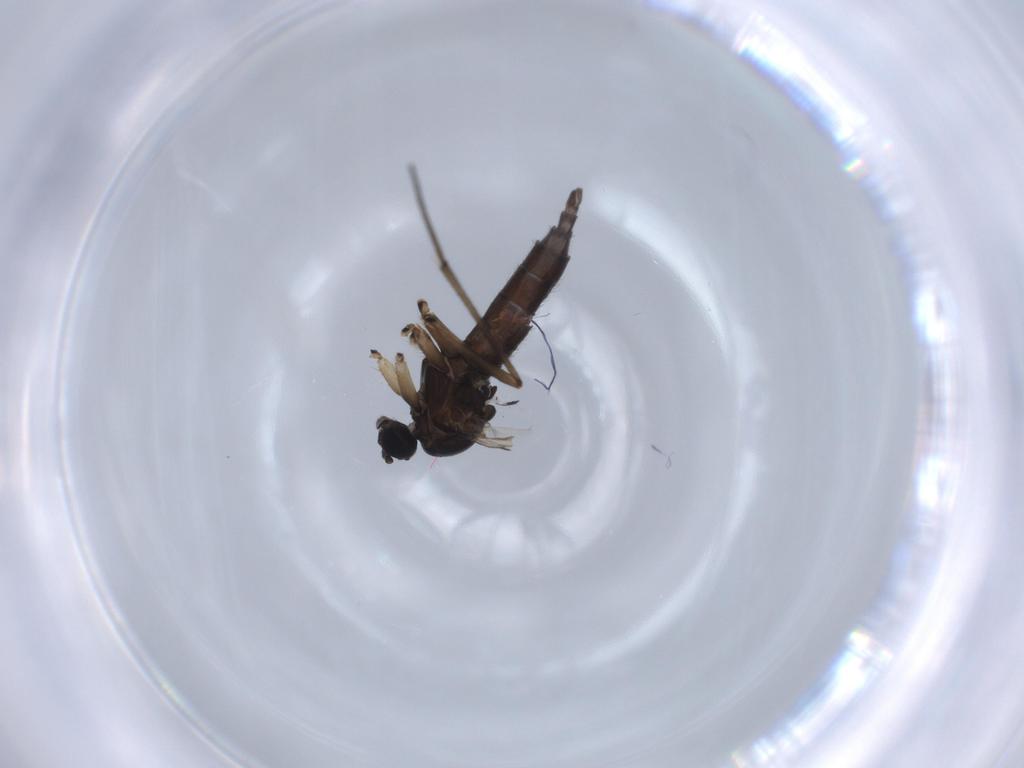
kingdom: Animalia
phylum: Arthropoda
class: Insecta
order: Diptera
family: Sciaridae
